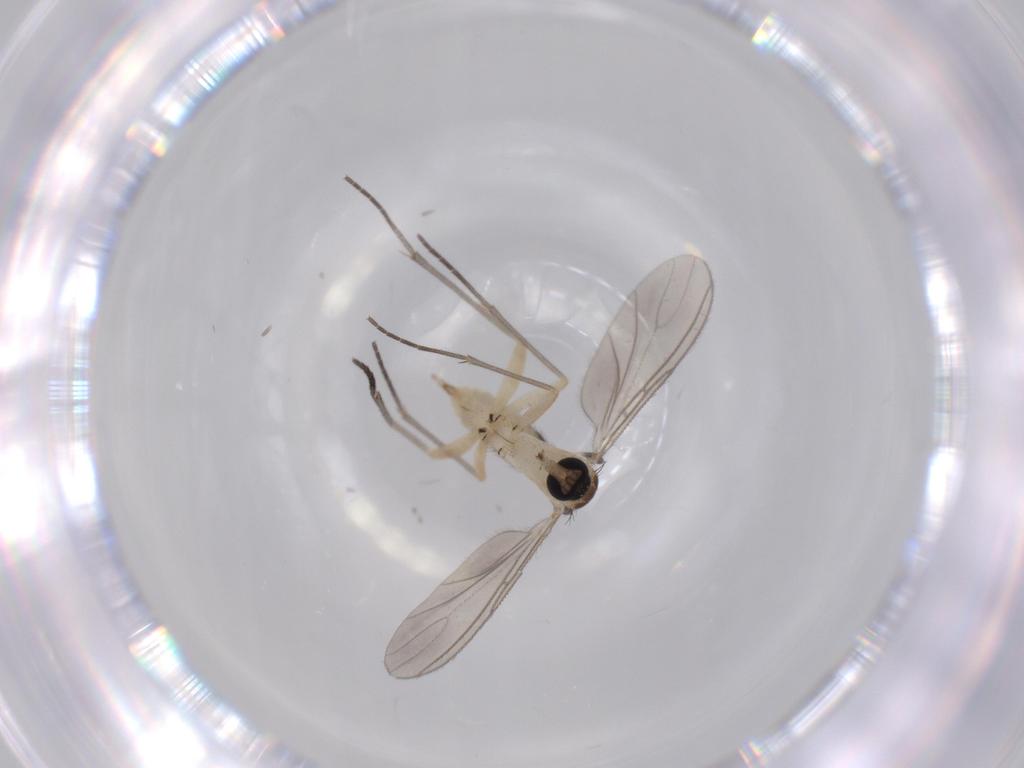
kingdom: Animalia
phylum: Arthropoda
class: Insecta
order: Diptera
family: Sciaridae
